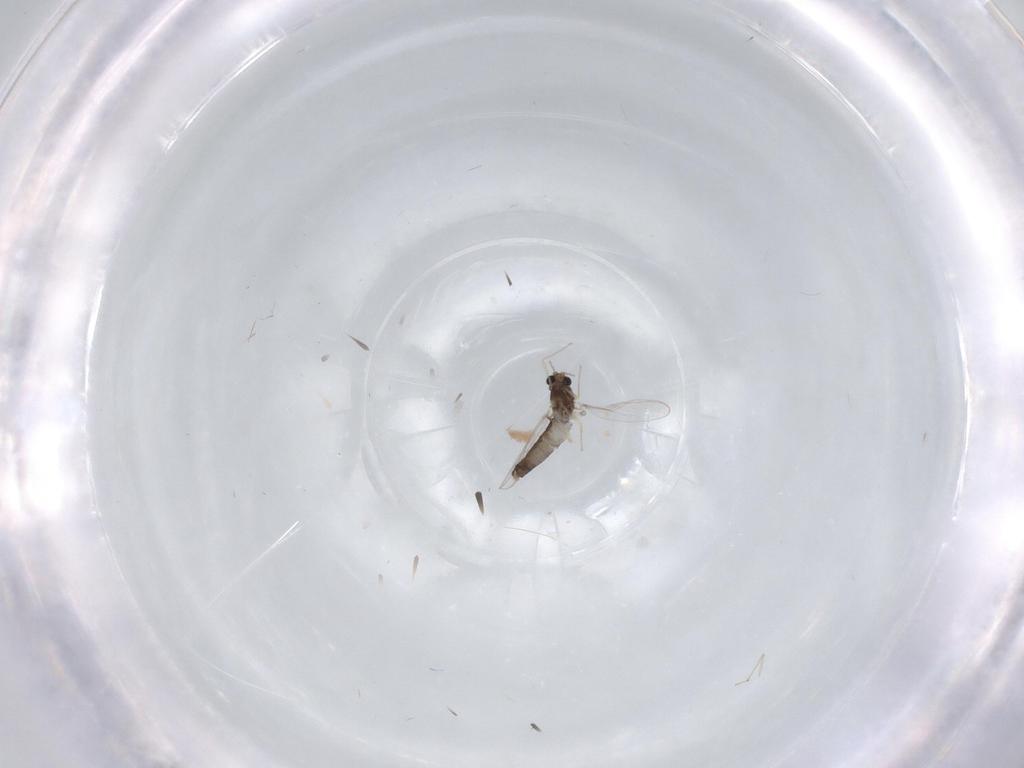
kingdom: Animalia
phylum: Arthropoda
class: Insecta
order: Diptera
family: Chironomidae
